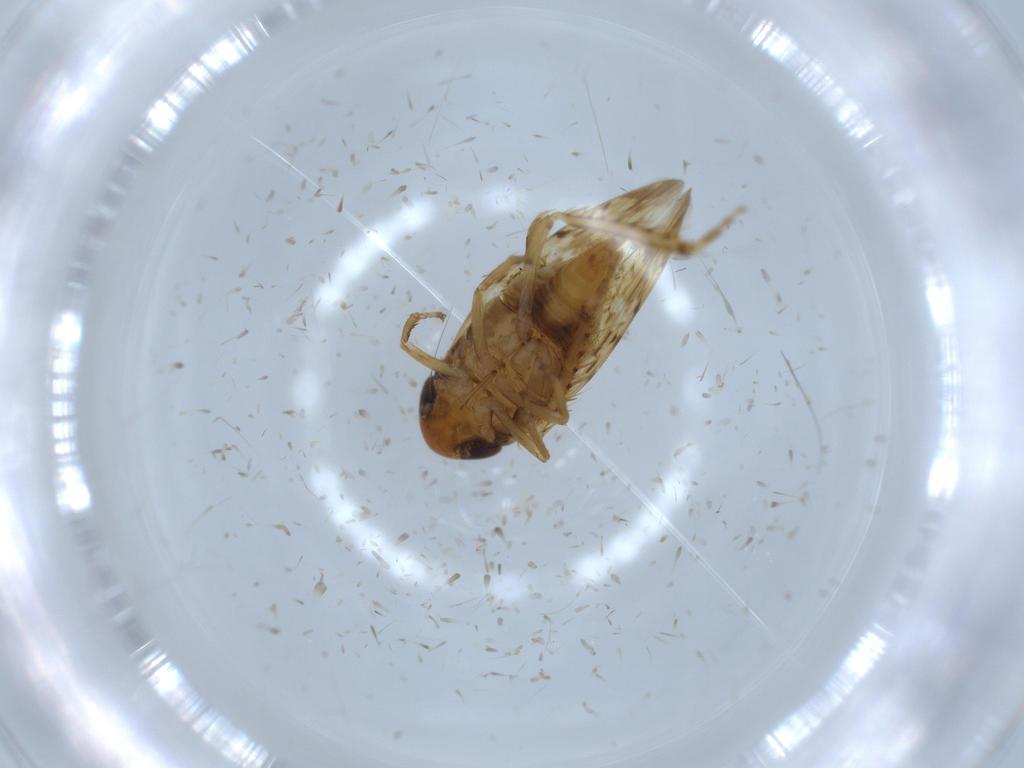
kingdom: Animalia
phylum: Arthropoda
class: Insecta
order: Hemiptera
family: Cicadellidae
